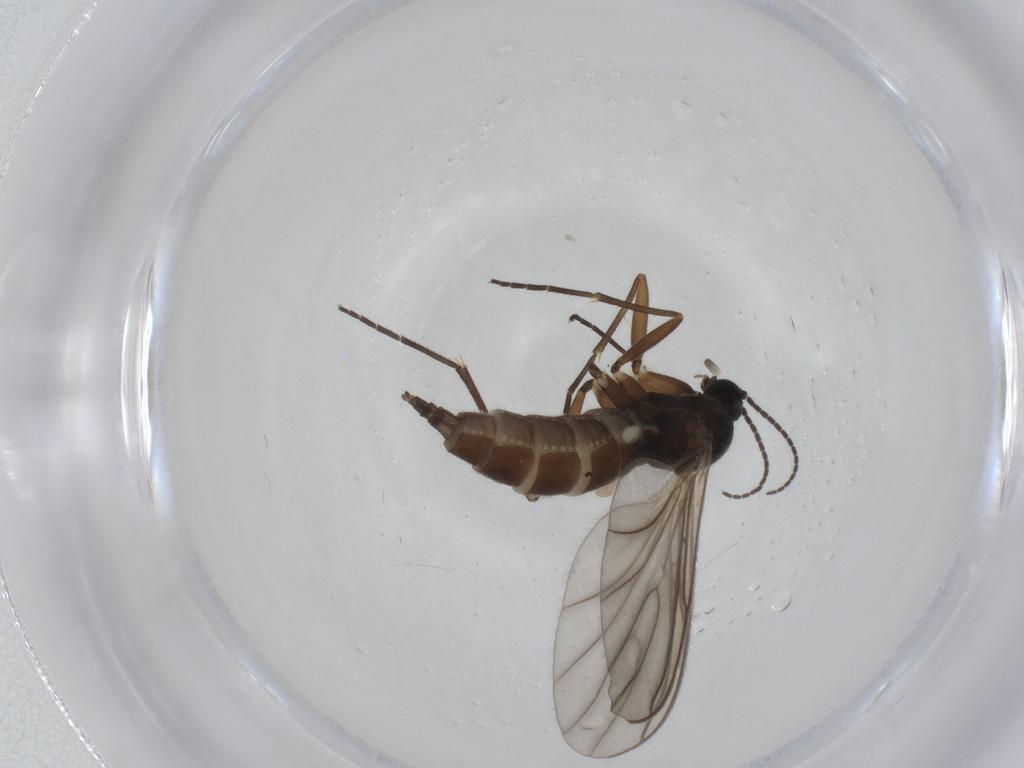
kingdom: Animalia
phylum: Arthropoda
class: Insecta
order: Diptera
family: Sciaridae
